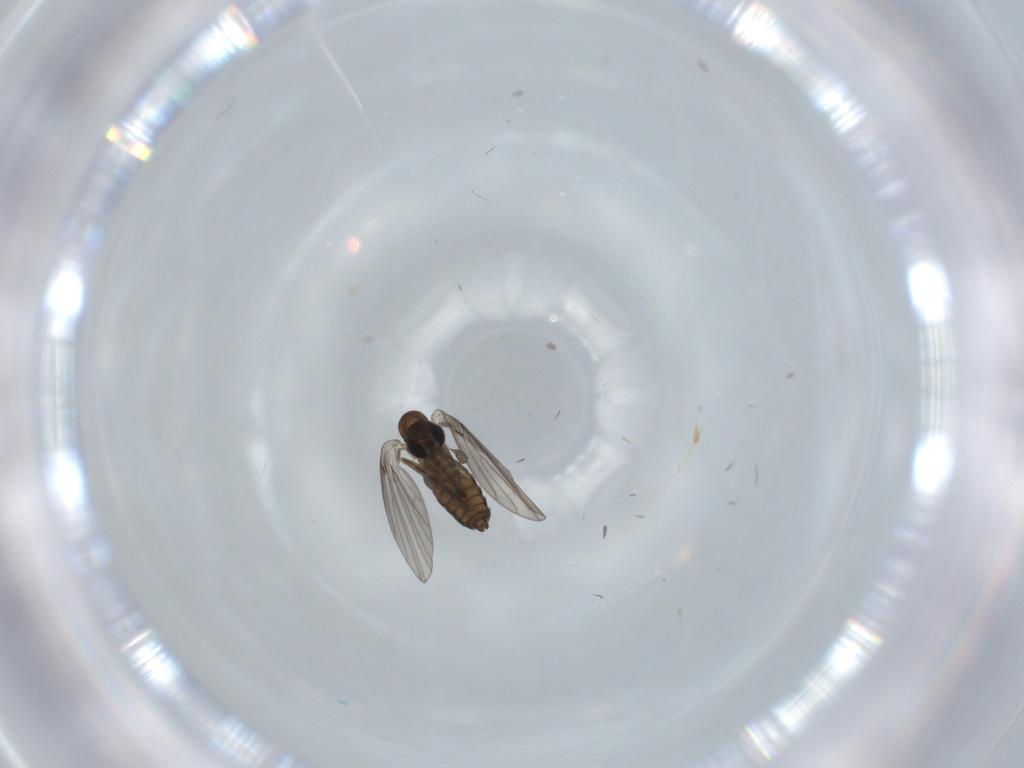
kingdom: Animalia
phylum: Arthropoda
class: Insecta
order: Diptera
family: Psychodidae
